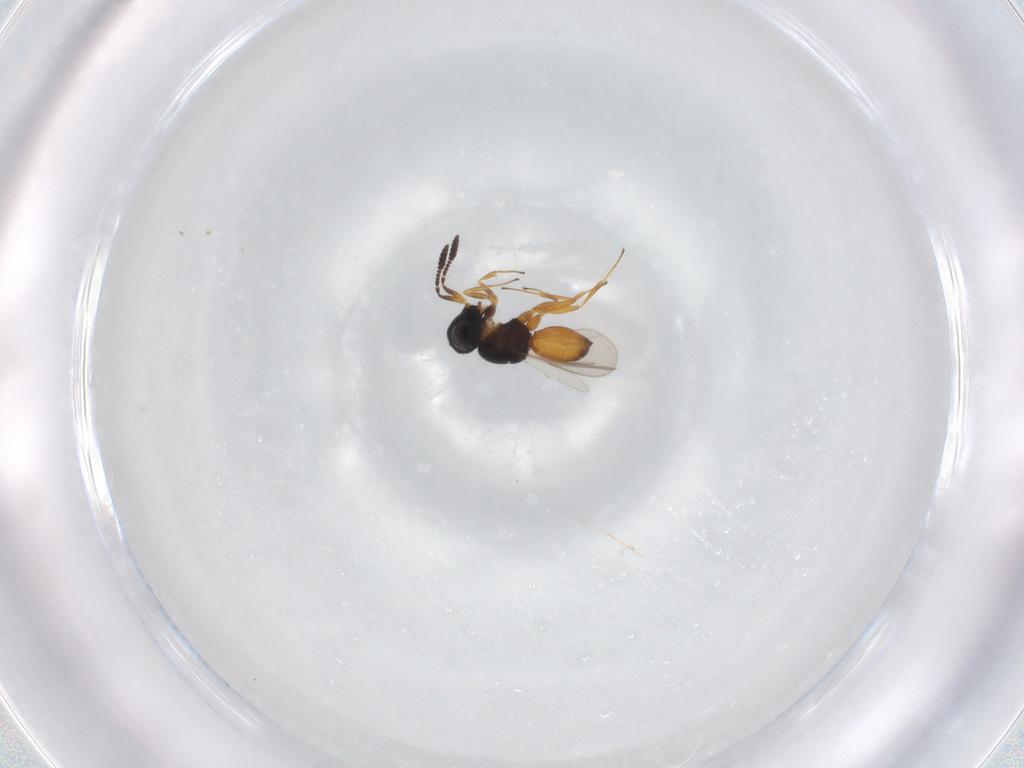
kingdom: Animalia
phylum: Arthropoda
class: Insecta
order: Hymenoptera
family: Scelionidae
